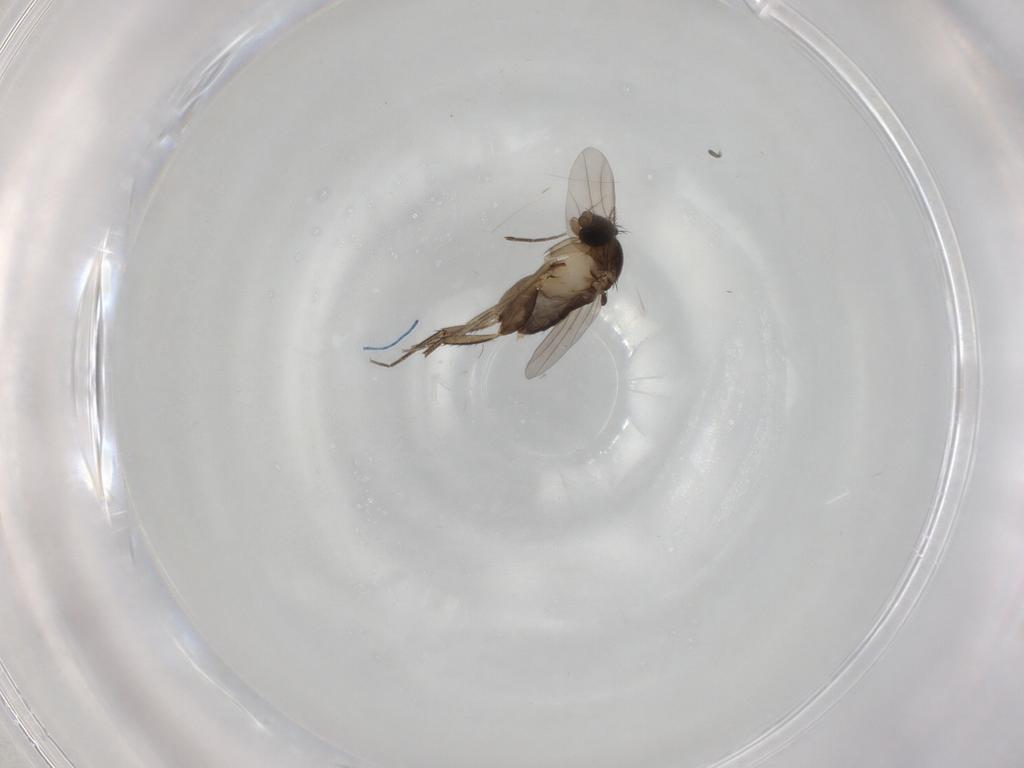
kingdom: Animalia
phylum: Arthropoda
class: Insecta
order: Diptera
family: Phoridae
